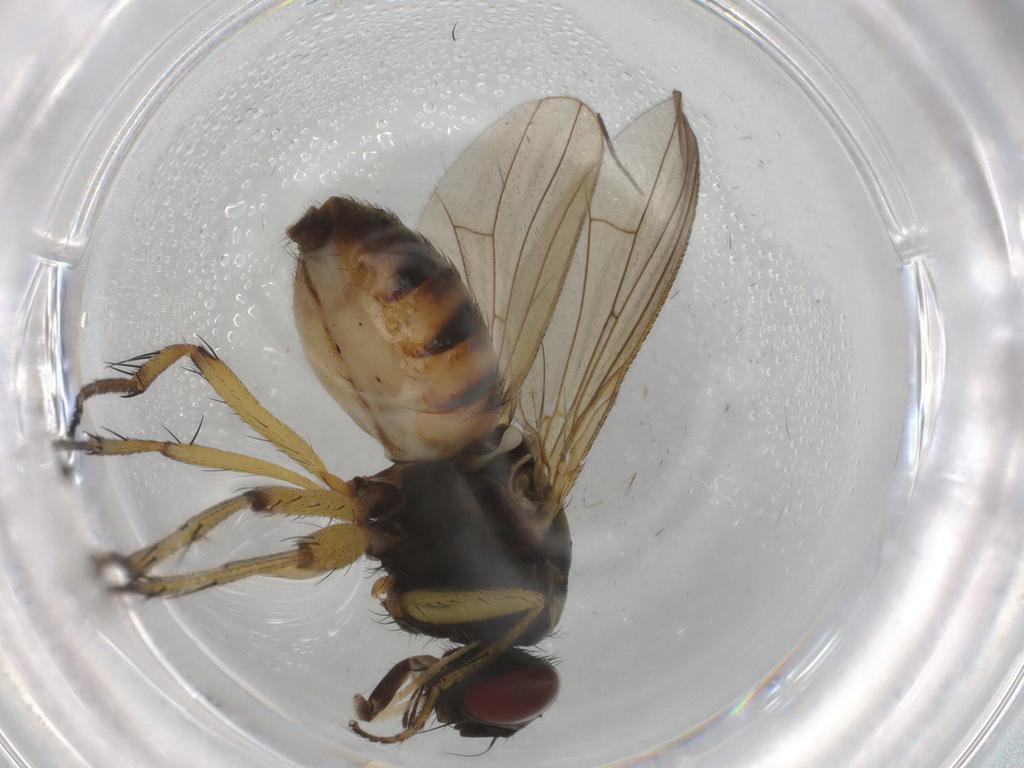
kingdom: Animalia
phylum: Arthropoda
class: Insecta
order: Diptera
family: Muscidae
